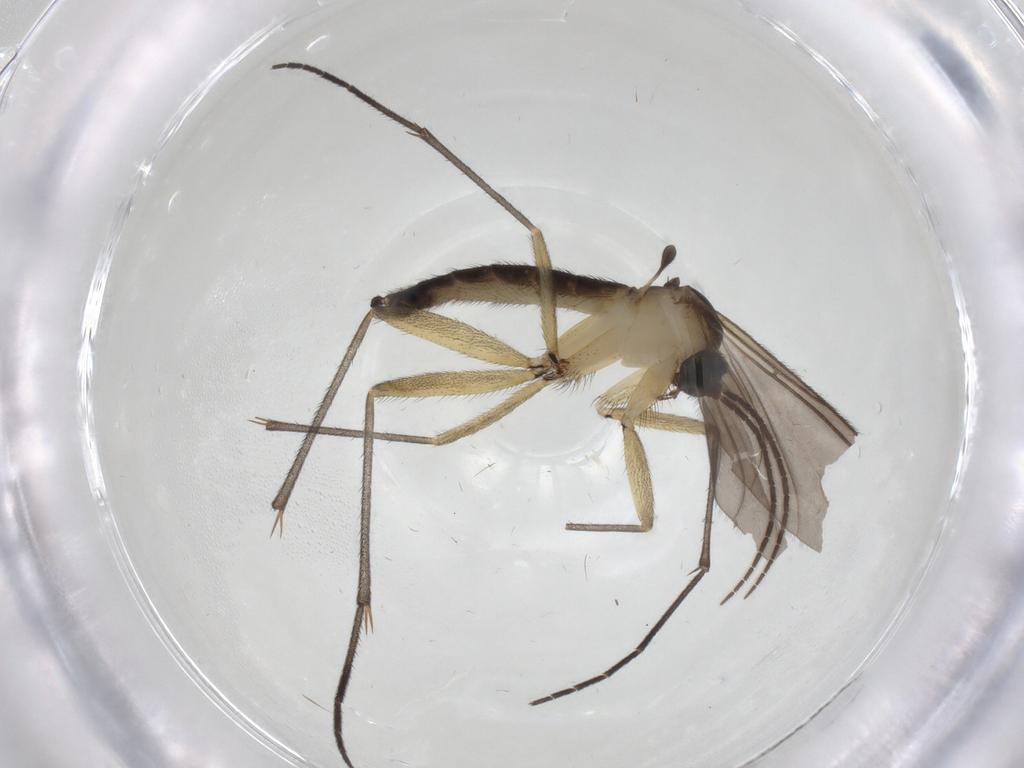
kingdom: Animalia
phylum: Arthropoda
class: Insecta
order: Diptera
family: Sciaridae
